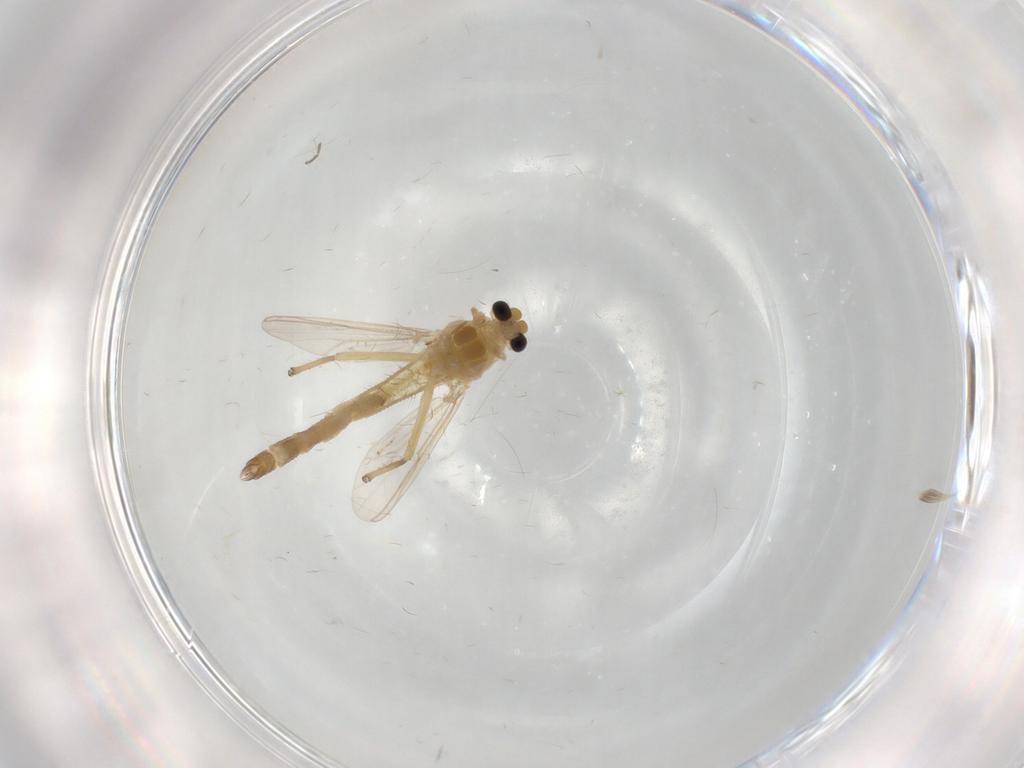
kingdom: Animalia
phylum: Arthropoda
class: Insecta
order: Diptera
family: Chironomidae
